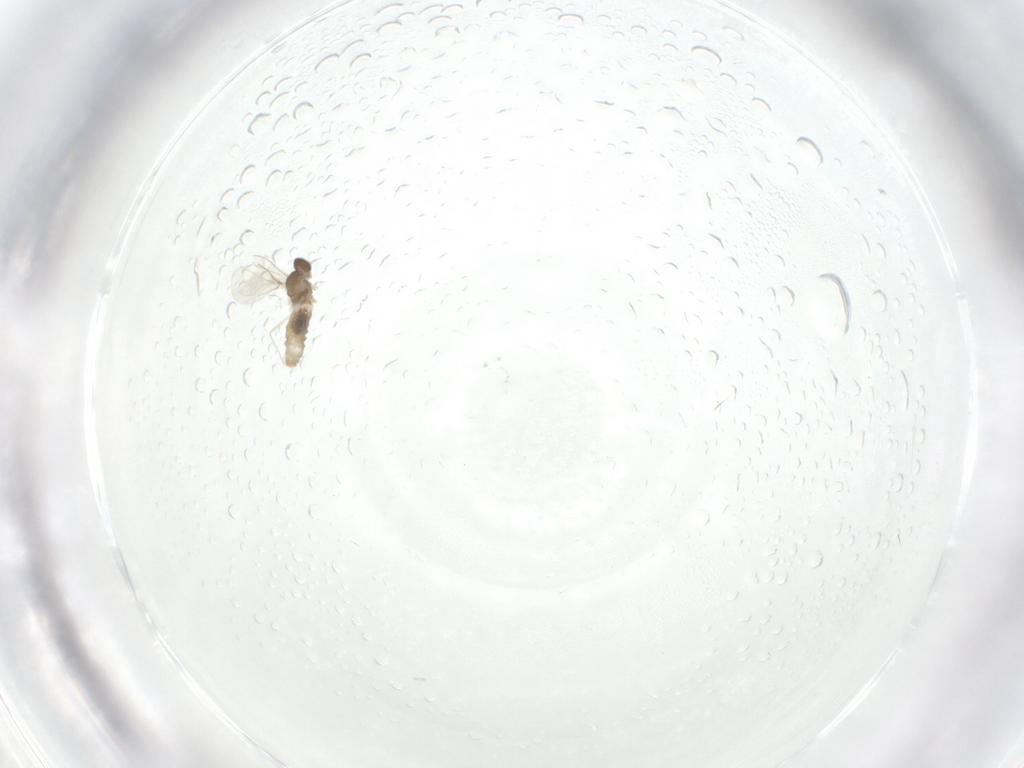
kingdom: Animalia
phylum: Arthropoda
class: Insecta
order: Diptera
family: Cecidomyiidae
